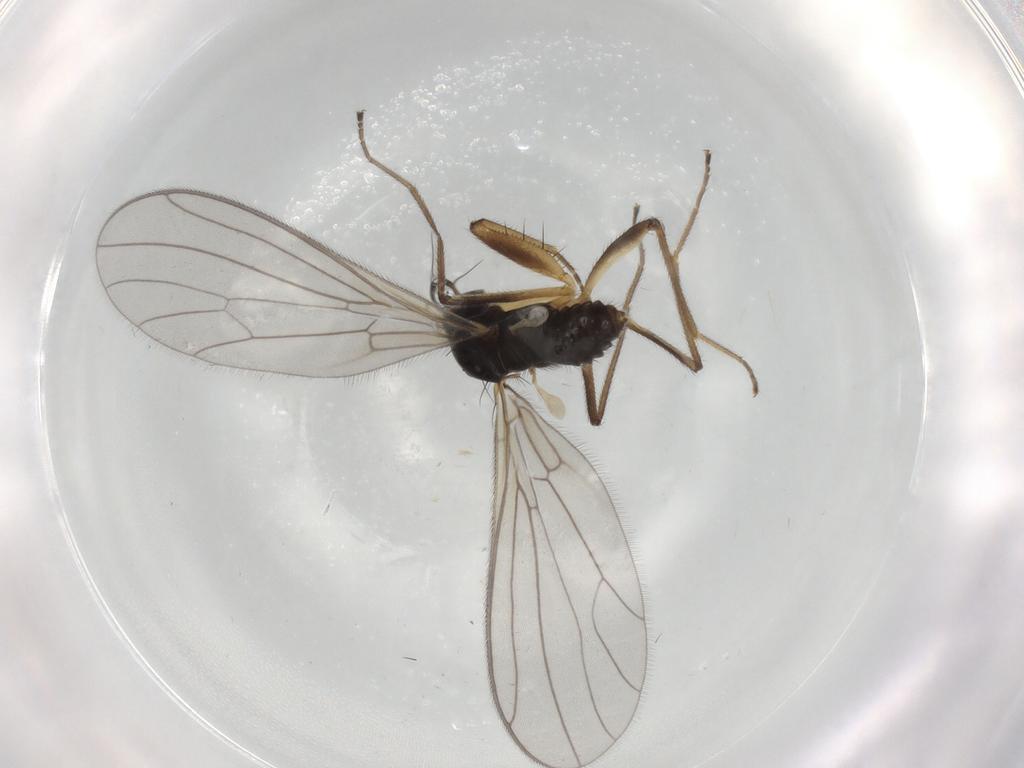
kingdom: Animalia
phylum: Arthropoda
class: Insecta
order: Diptera
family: Empididae
